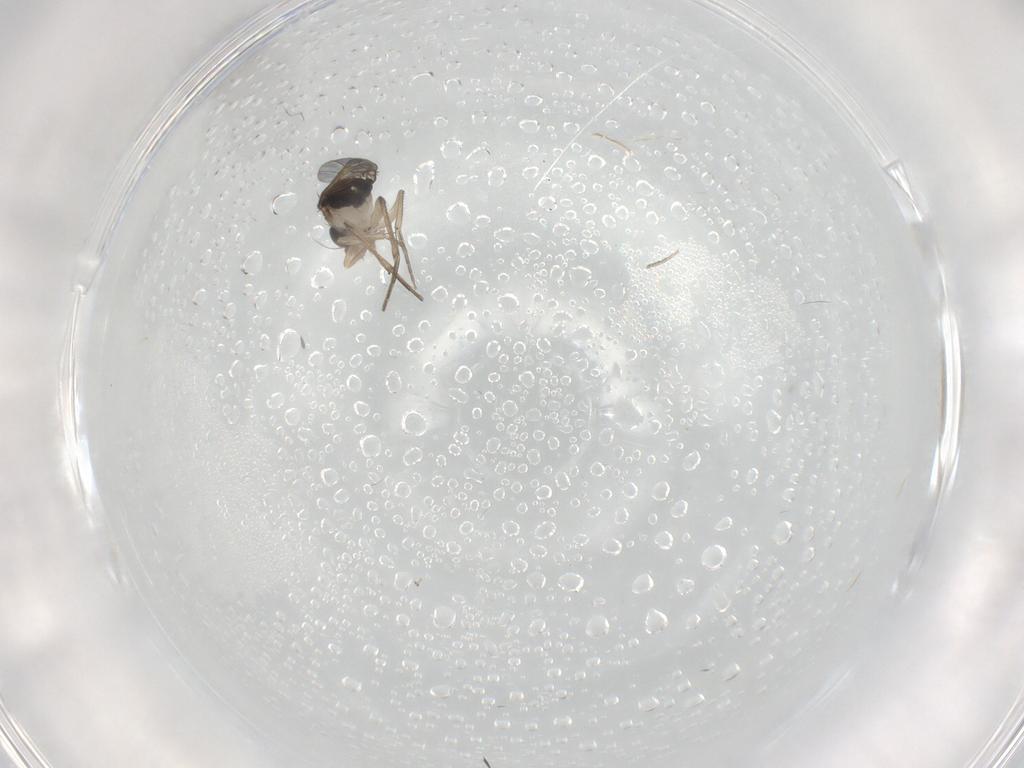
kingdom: Animalia
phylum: Arthropoda
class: Insecta
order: Diptera
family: Phoridae
